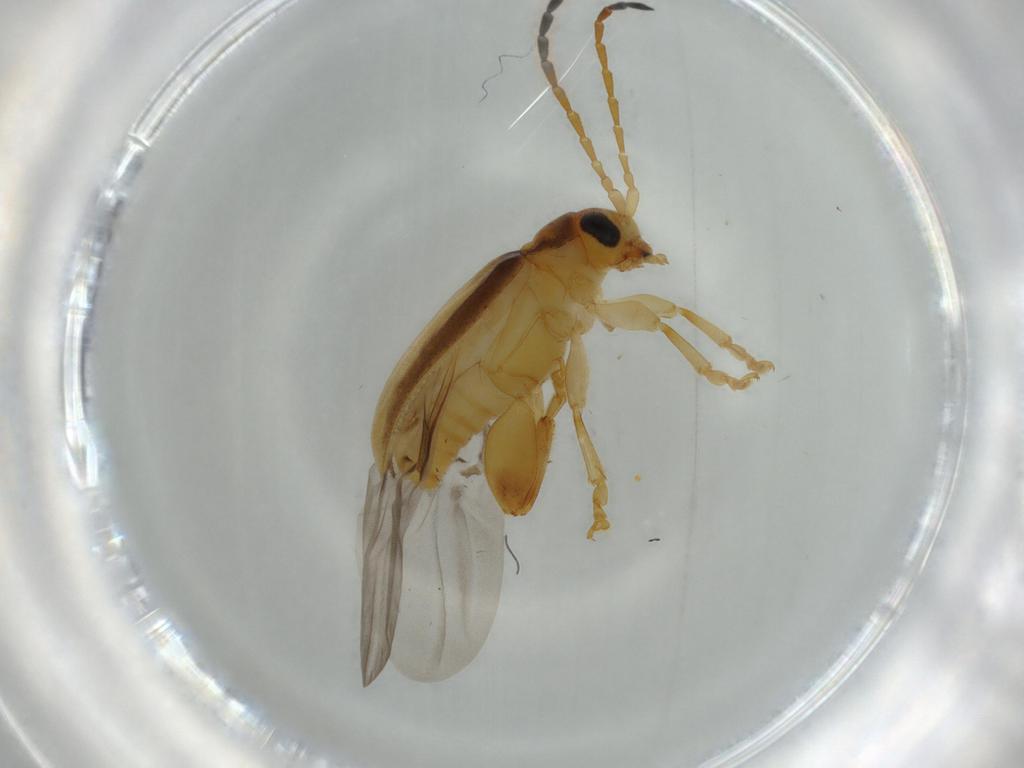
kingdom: Animalia
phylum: Arthropoda
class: Insecta
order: Coleoptera
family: Chrysomelidae
